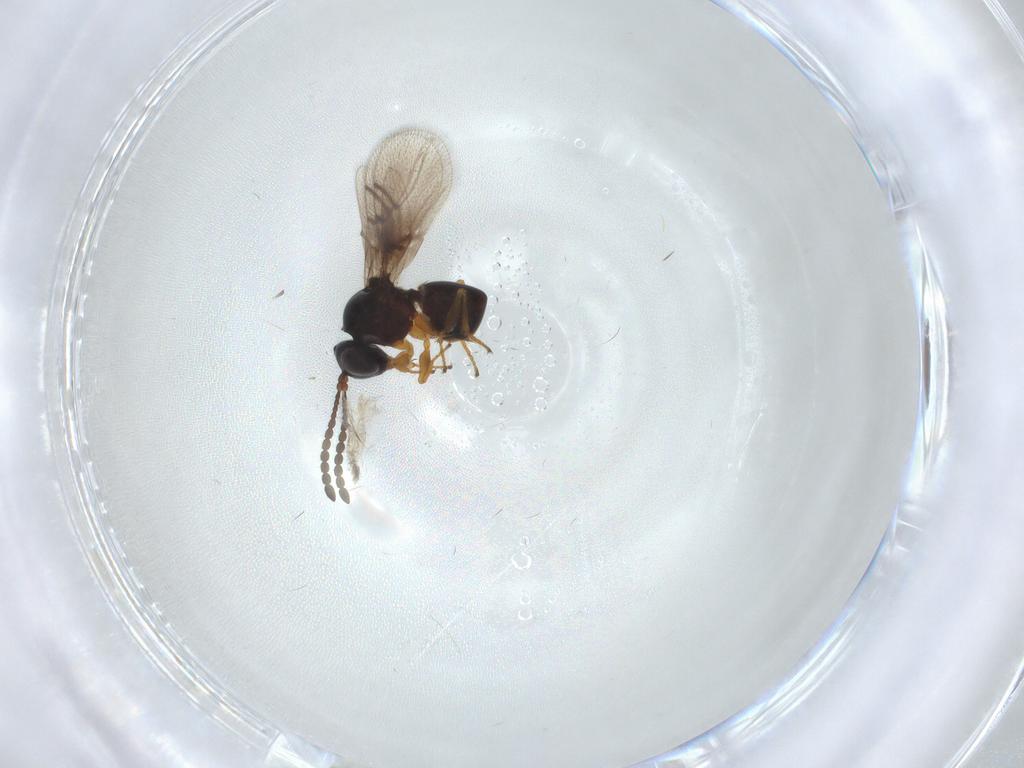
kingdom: Animalia
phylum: Arthropoda
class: Insecta
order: Hymenoptera
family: Figitidae
